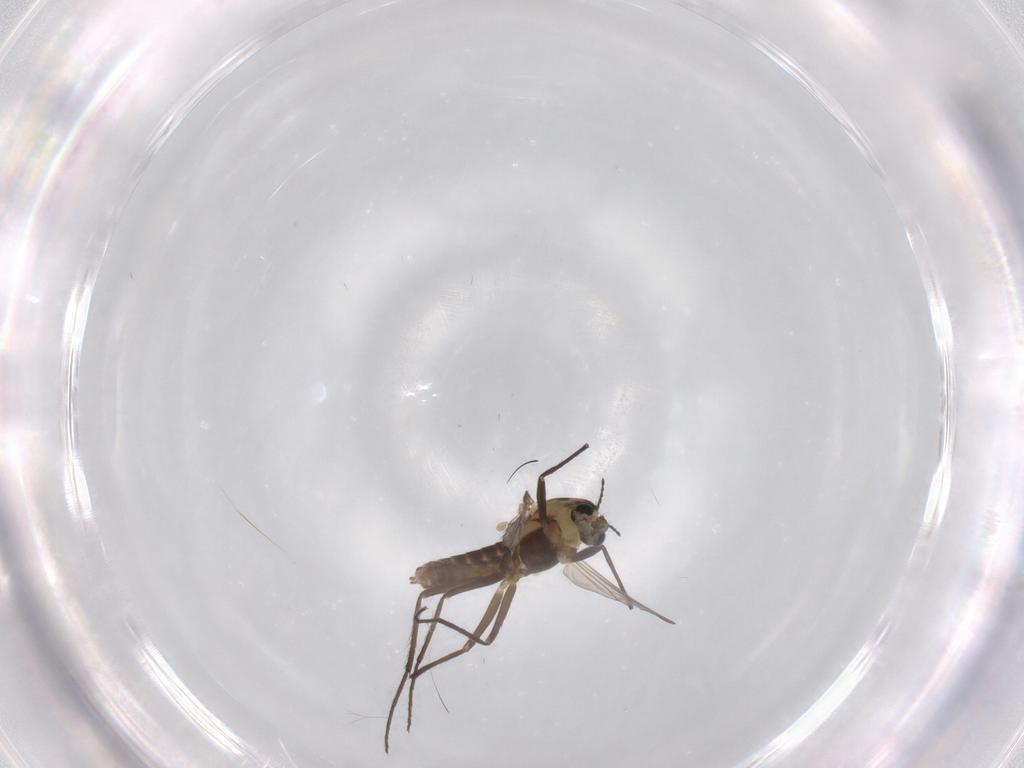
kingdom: Animalia
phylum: Arthropoda
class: Insecta
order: Diptera
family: Chironomidae
